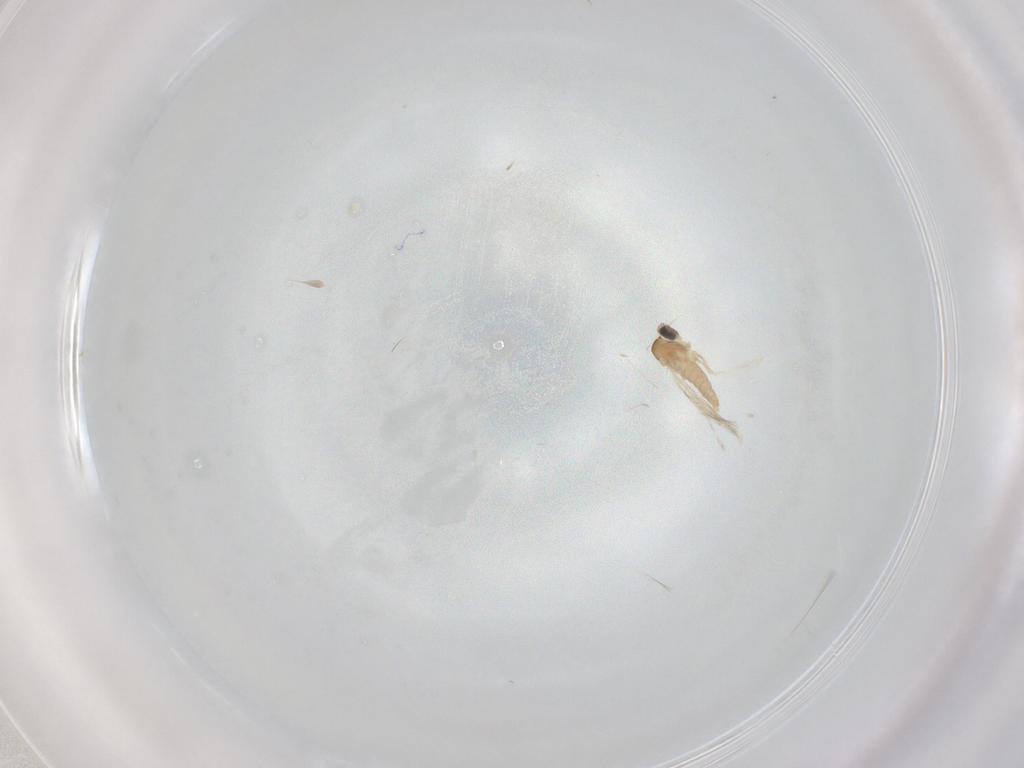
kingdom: Animalia
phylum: Arthropoda
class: Insecta
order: Diptera
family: Cecidomyiidae
